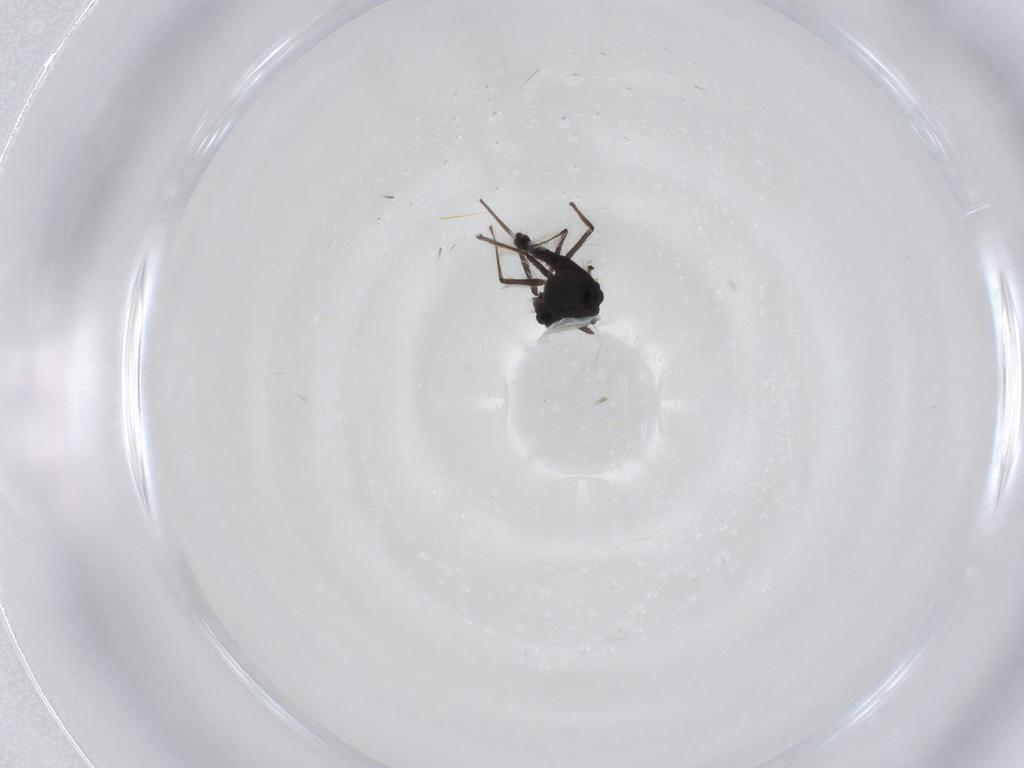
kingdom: Animalia
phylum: Arthropoda
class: Insecta
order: Diptera
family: Chironomidae
